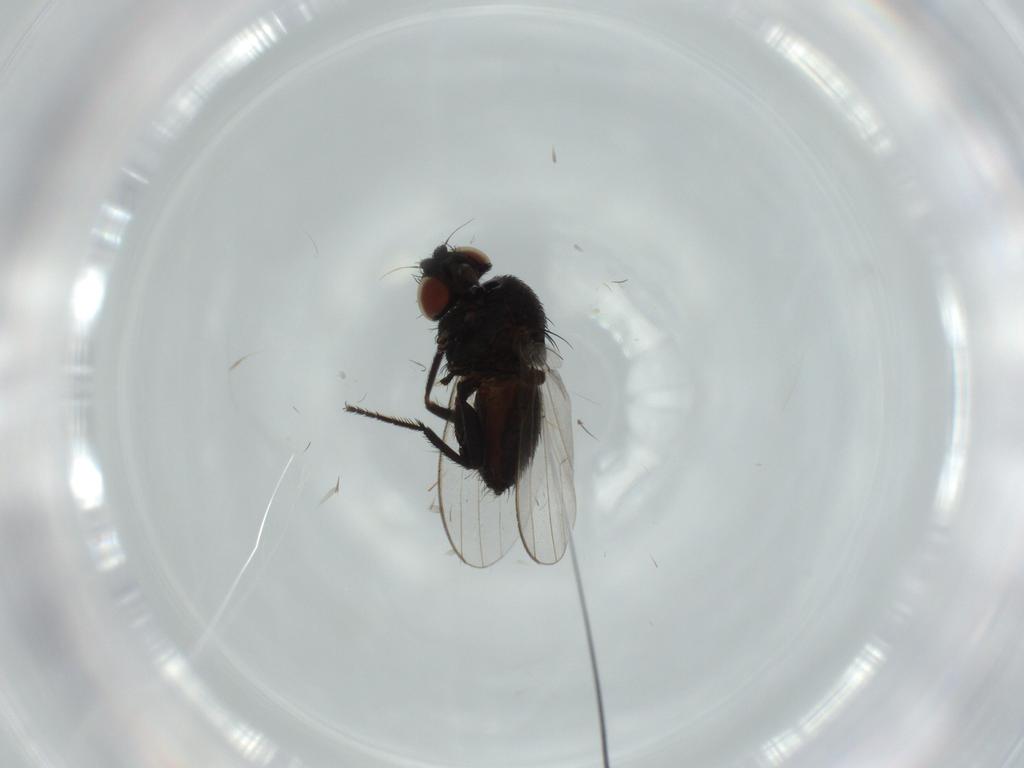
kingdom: Animalia
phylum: Arthropoda
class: Insecta
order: Diptera
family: Milichiidae
